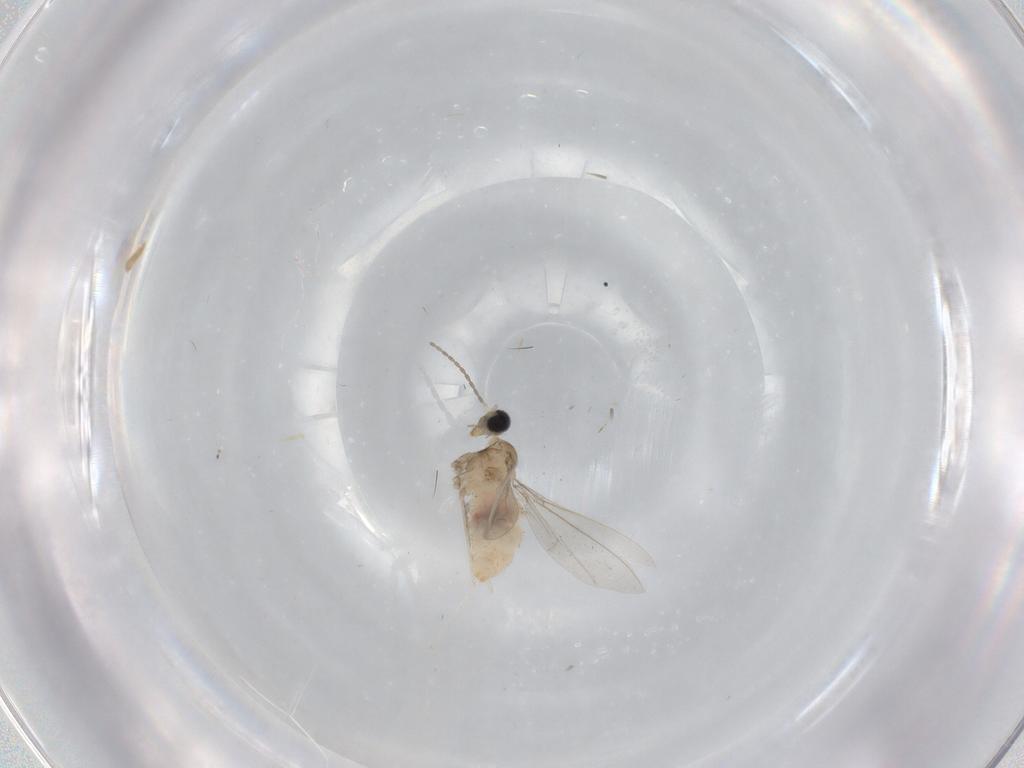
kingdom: Animalia
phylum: Arthropoda
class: Insecta
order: Diptera
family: Cecidomyiidae
